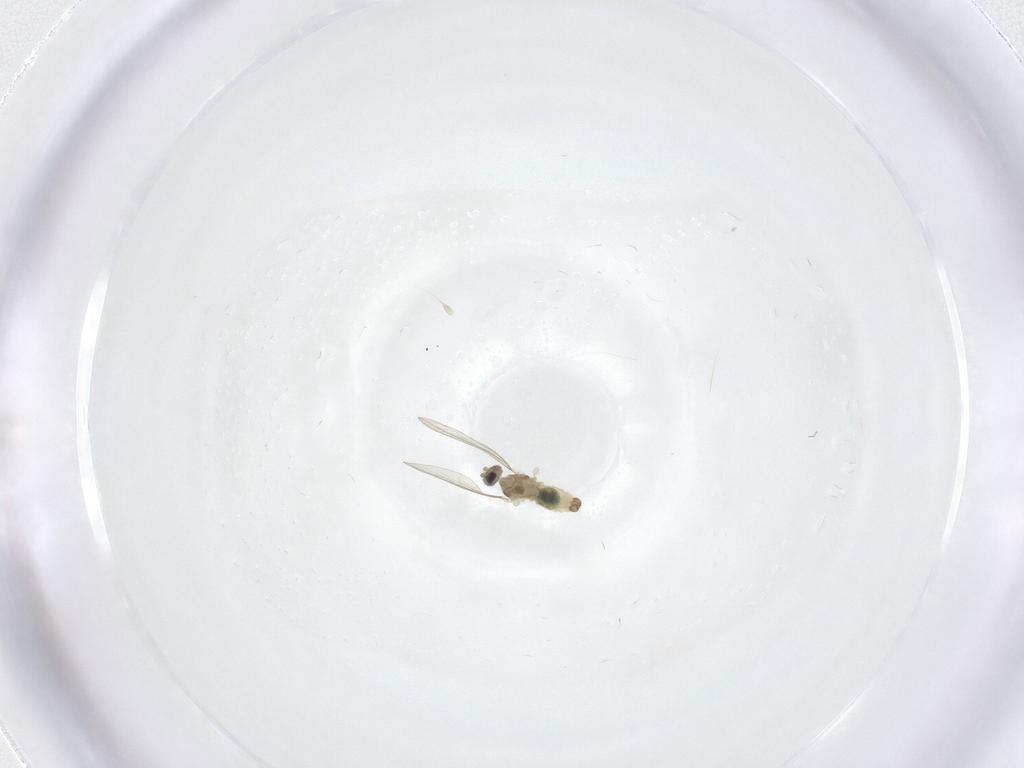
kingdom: Animalia
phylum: Arthropoda
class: Insecta
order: Diptera
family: Cecidomyiidae
